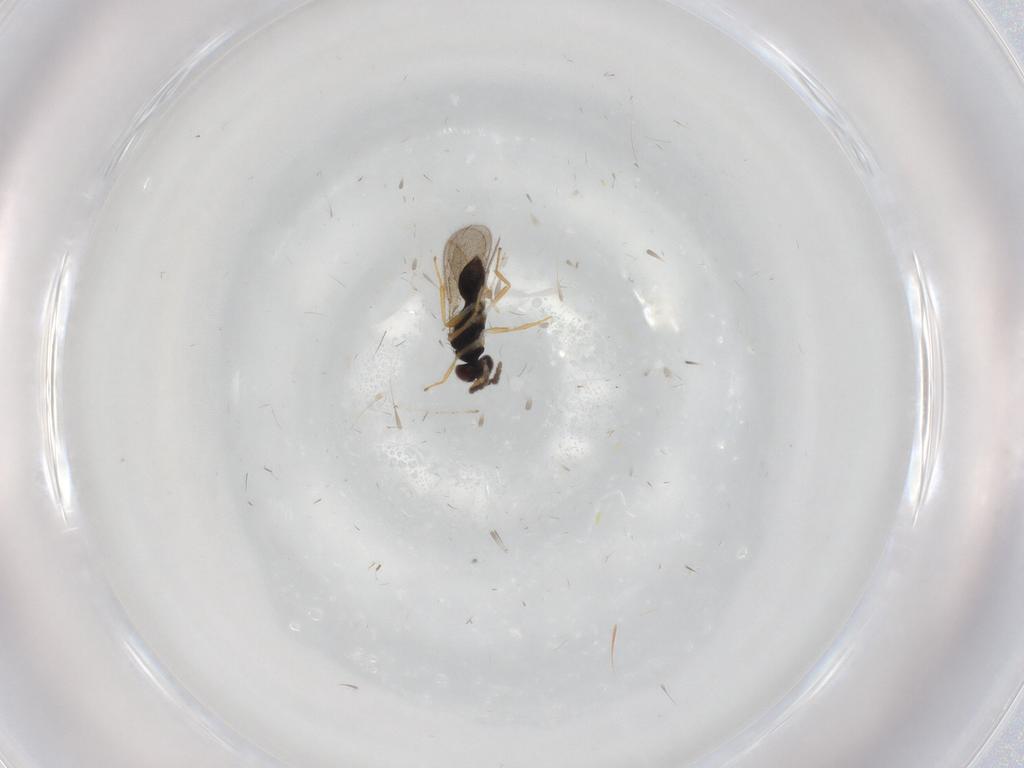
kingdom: Animalia
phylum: Arthropoda
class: Insecta
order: Hymenoptera
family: Eulophidae
